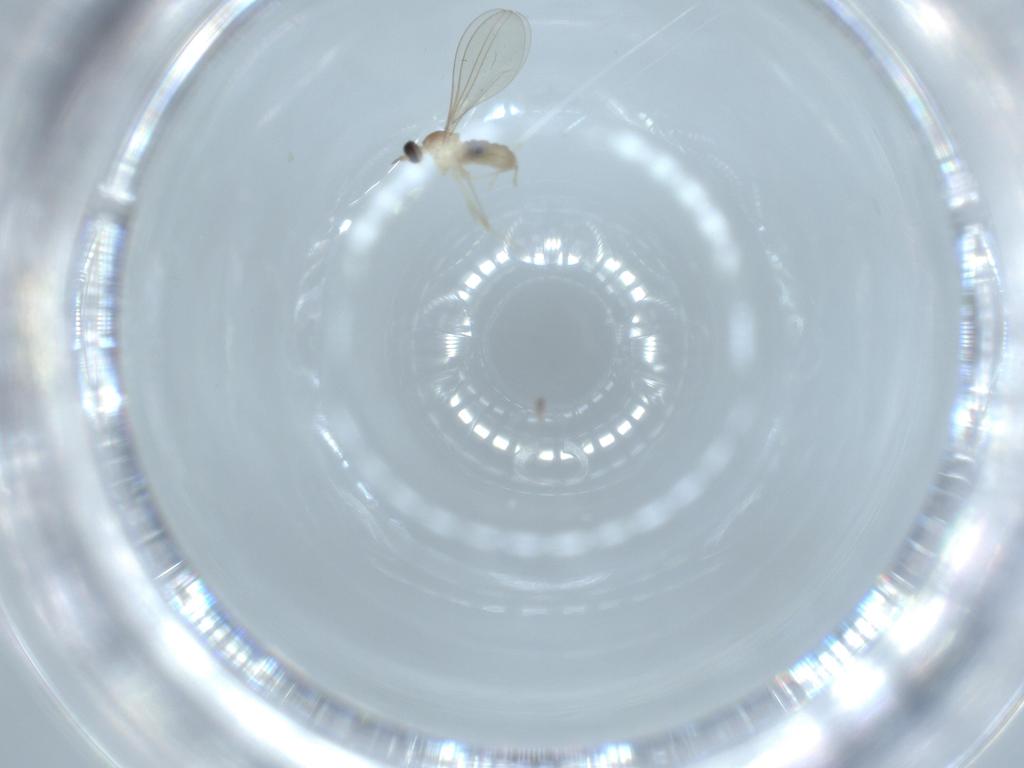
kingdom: Animalia
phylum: Arthropoda
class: Insecta
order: Diptera
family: Cecidomyiidae
